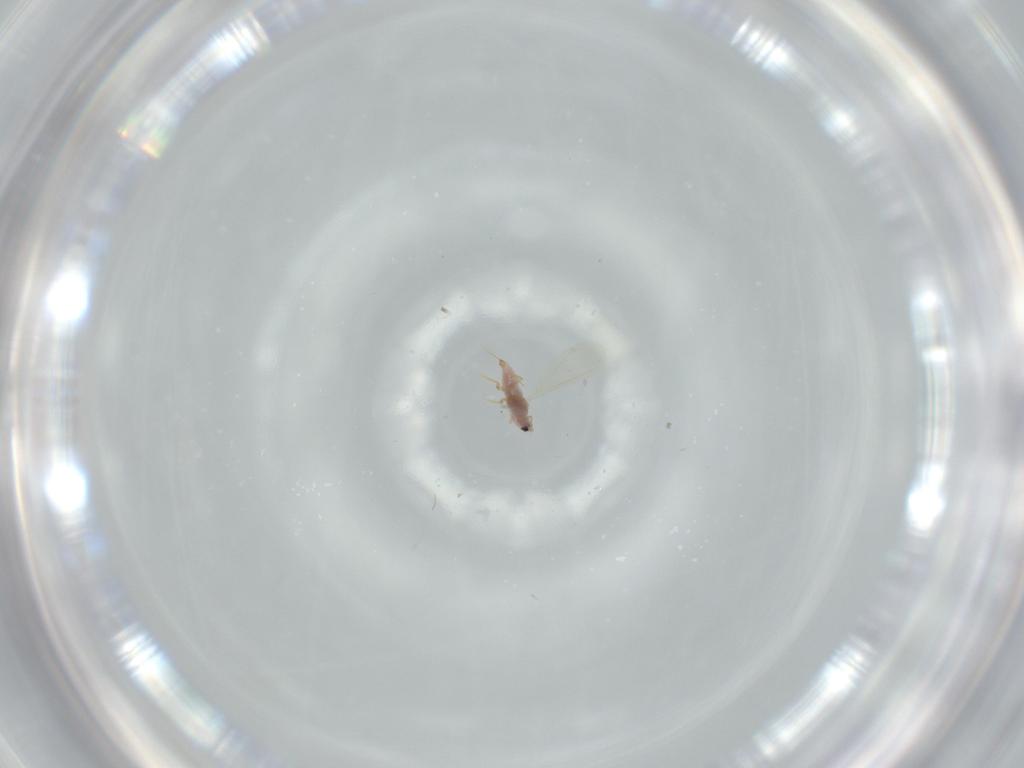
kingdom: Animalia
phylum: Arthropoda
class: Insecta
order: Hemiptera
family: Diaspididae
